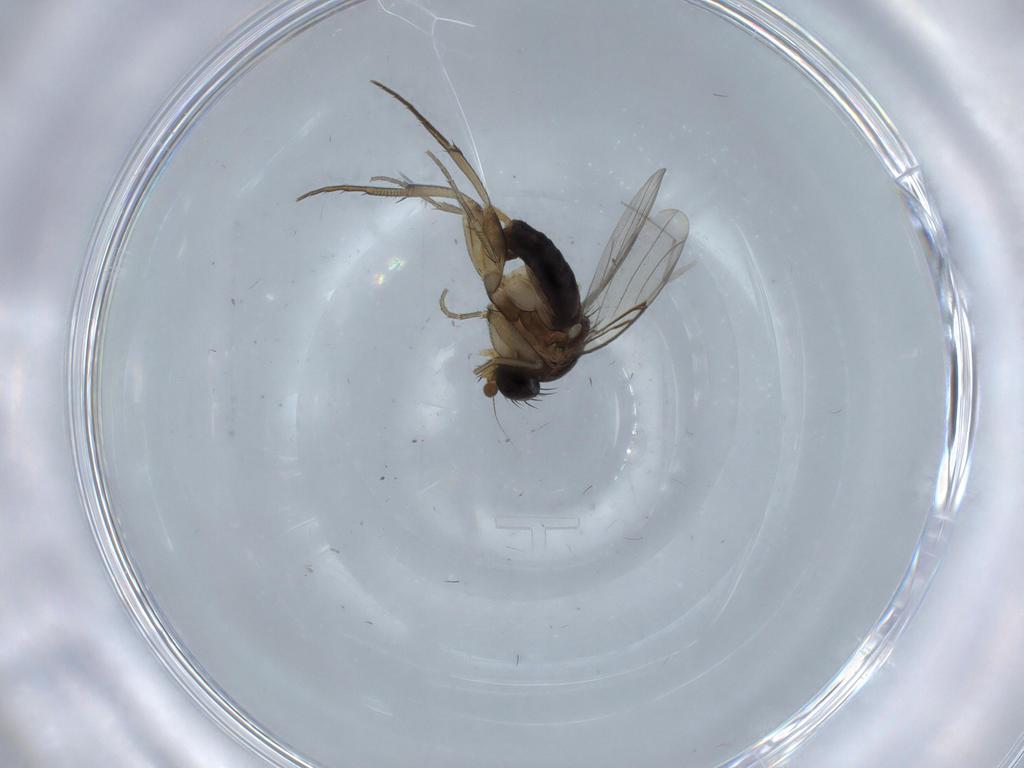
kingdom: Animalia
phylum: Arthropoda
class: Insecta
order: Diptera
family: Phoridae
